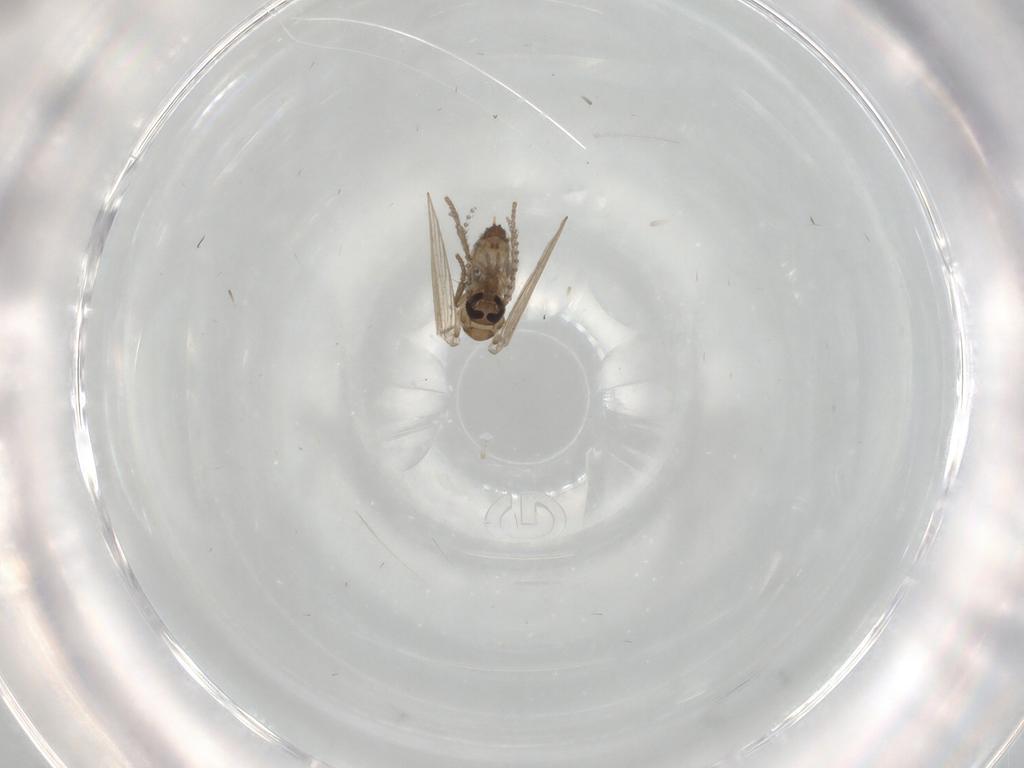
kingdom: Animalia
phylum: Arthropoda
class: Insecta
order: Diptera
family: Psychodidae
